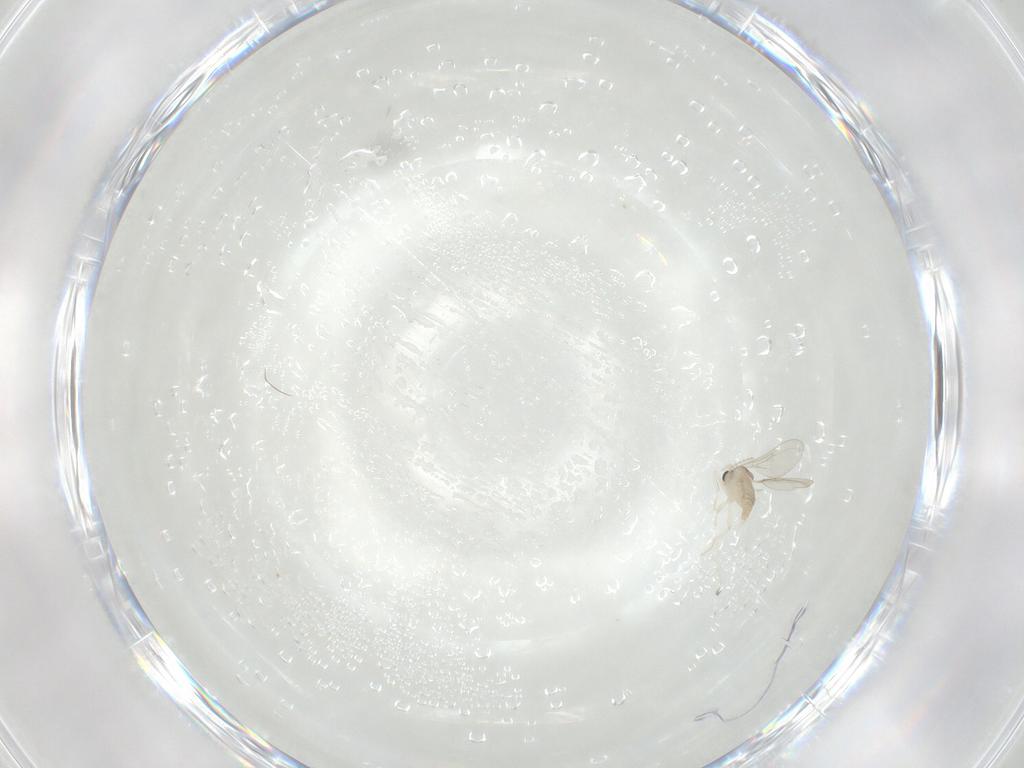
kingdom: Animalia
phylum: Arthropoda
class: Insecta
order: Diptera
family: Cecidomyiidae
